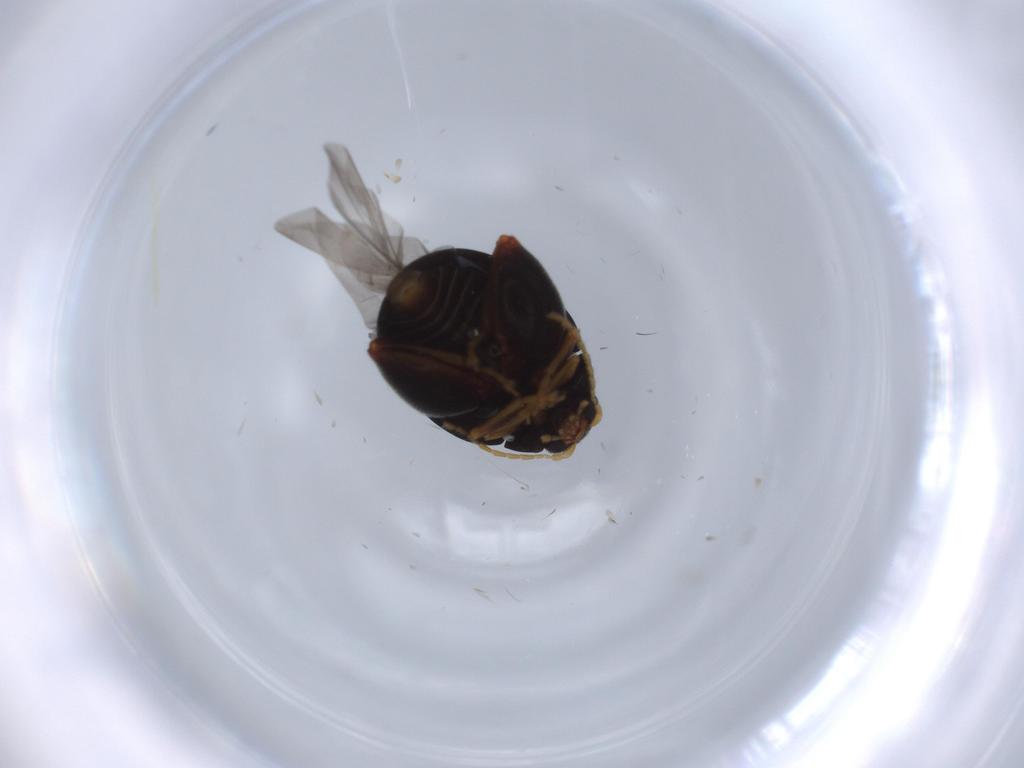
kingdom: Animalia
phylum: Arthropoda
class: Insecta
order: Coleoptera
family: Chrysomelidae
